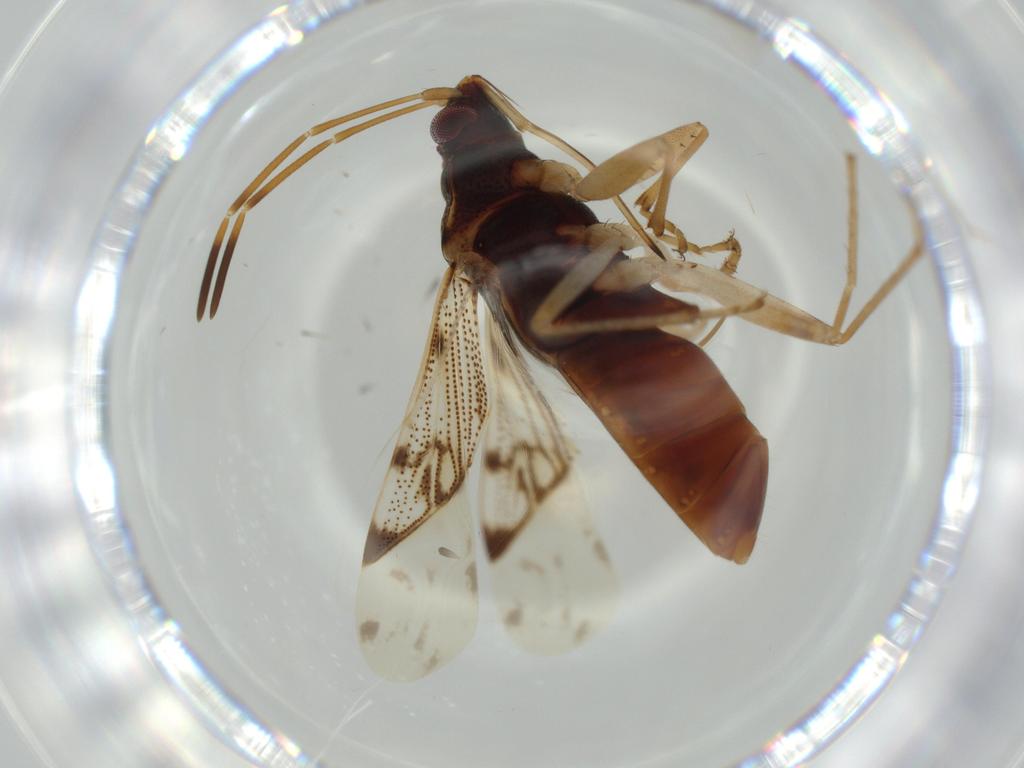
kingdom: Animalia
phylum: Arthropoda
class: Insecta
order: Hemiptera
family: Rhyparochromidae
